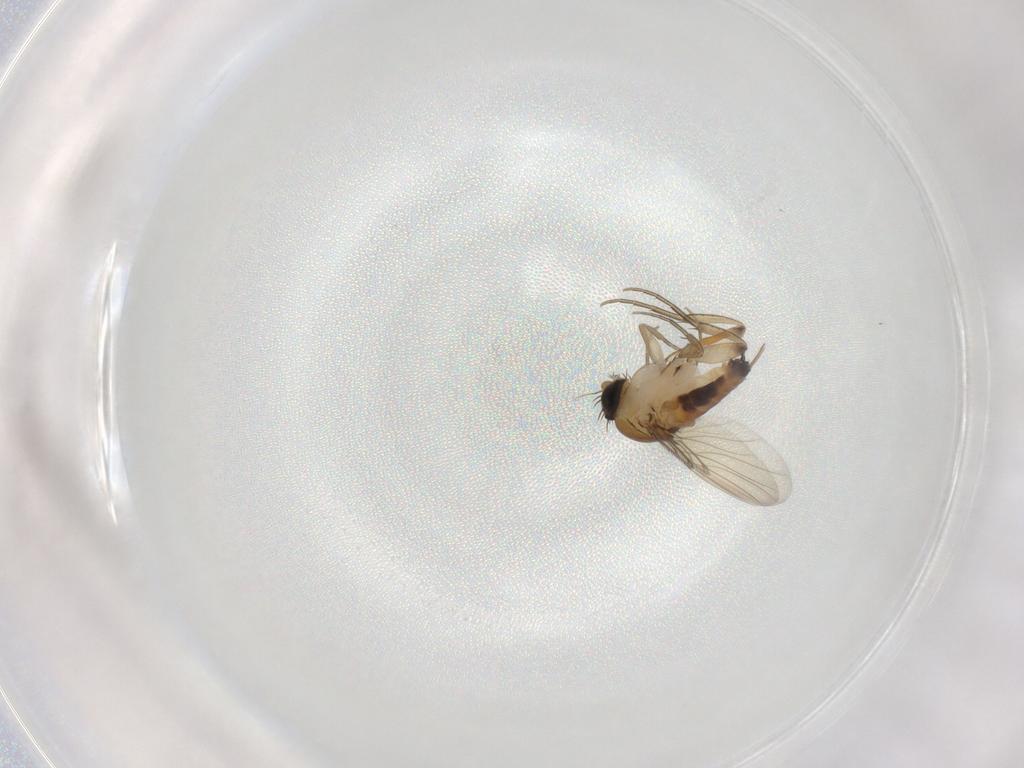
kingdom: Animalia
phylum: Arthropoda
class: Insecta
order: Diptera
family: Phoridae
